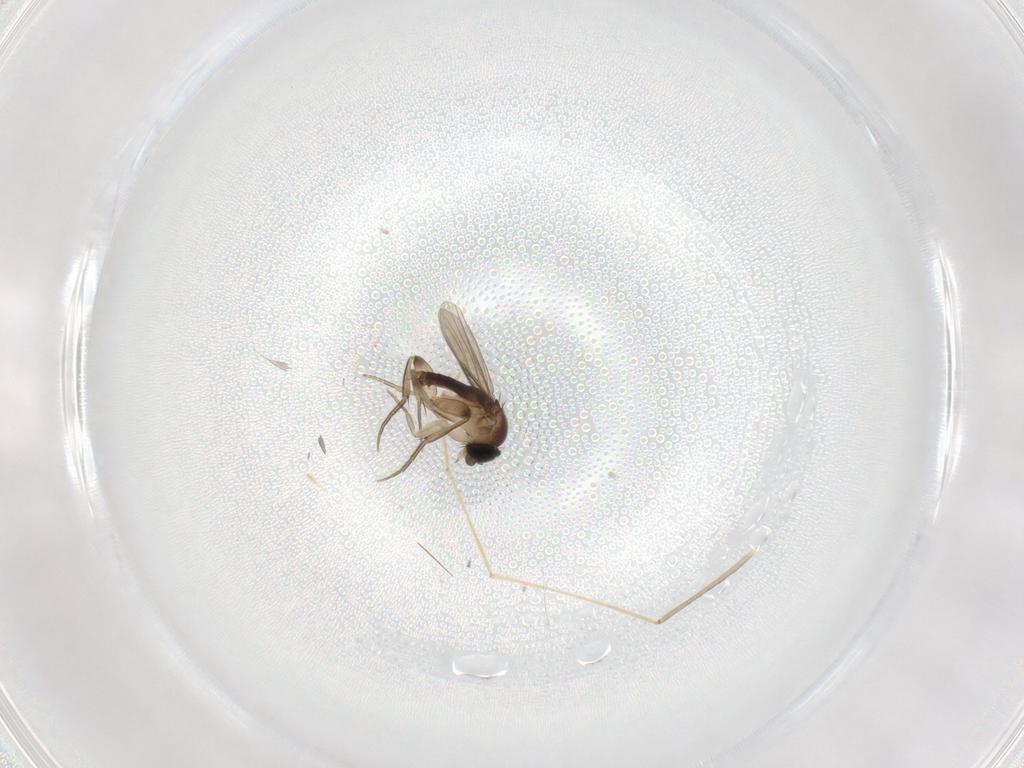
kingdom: Animalia
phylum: Arthropoda
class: Insecta
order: Diptera
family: Phoridae
